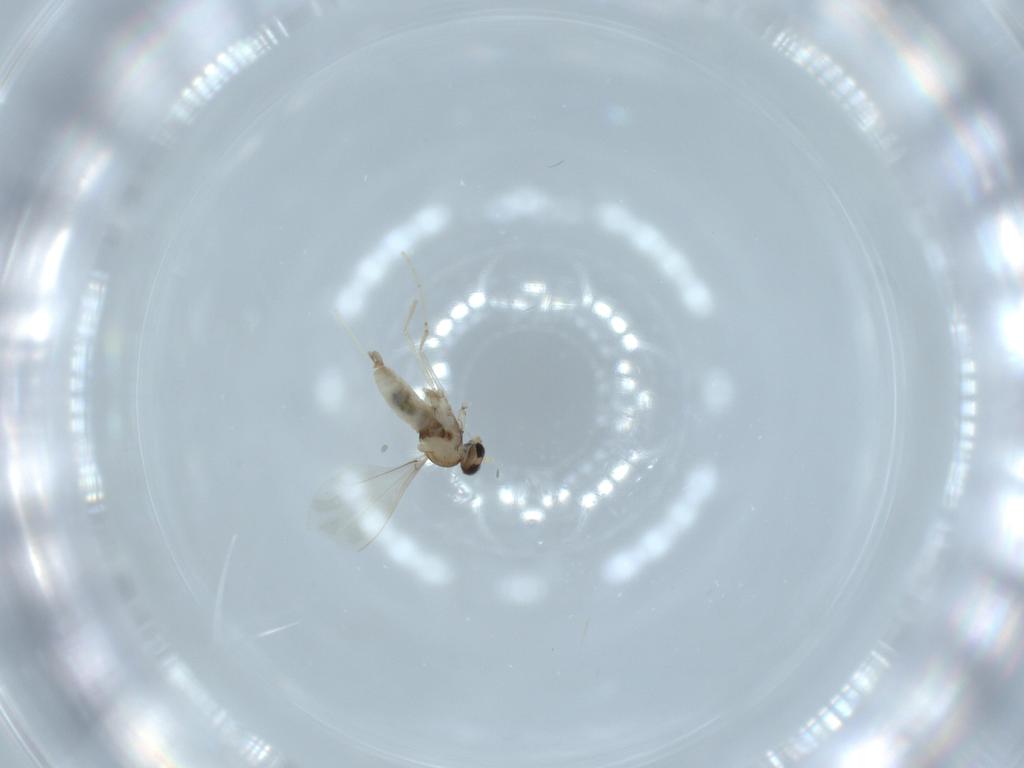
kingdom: Animalia
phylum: Arthropoda
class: Insecta
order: Diptera
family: Cecidomyiidae
